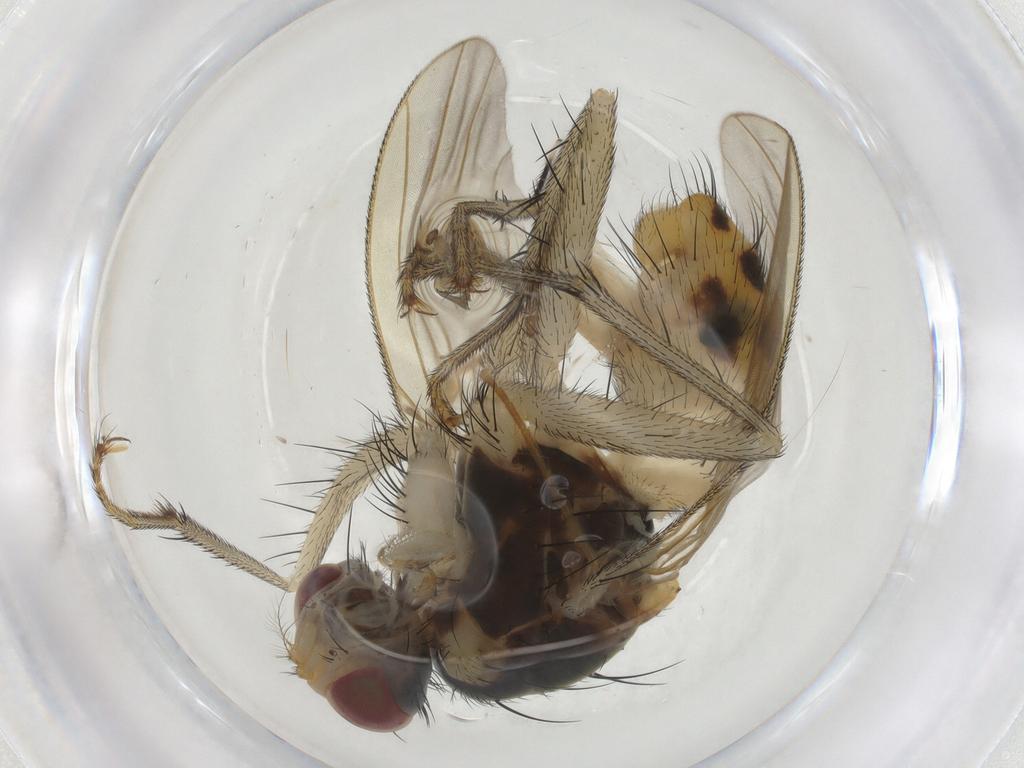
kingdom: Animalia
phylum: Arthropoda
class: Insecta
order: Diptera
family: Muscidae
